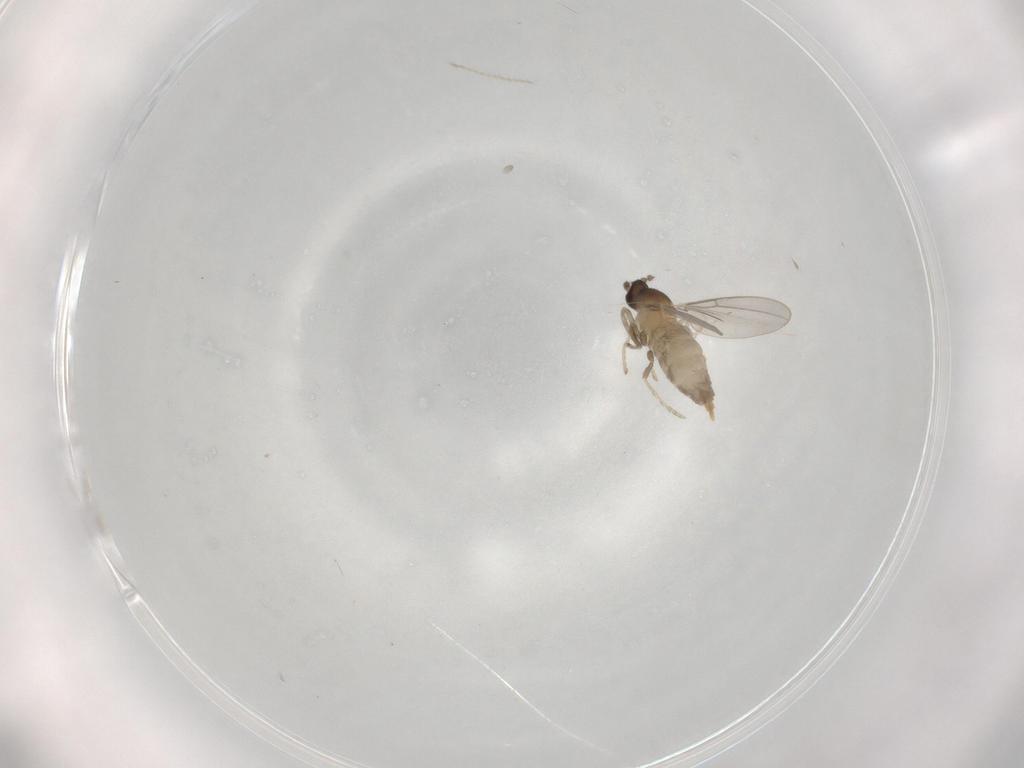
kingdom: Animalia
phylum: Arthropoda
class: Insecta
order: Diptera
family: Cecidomyiidae
